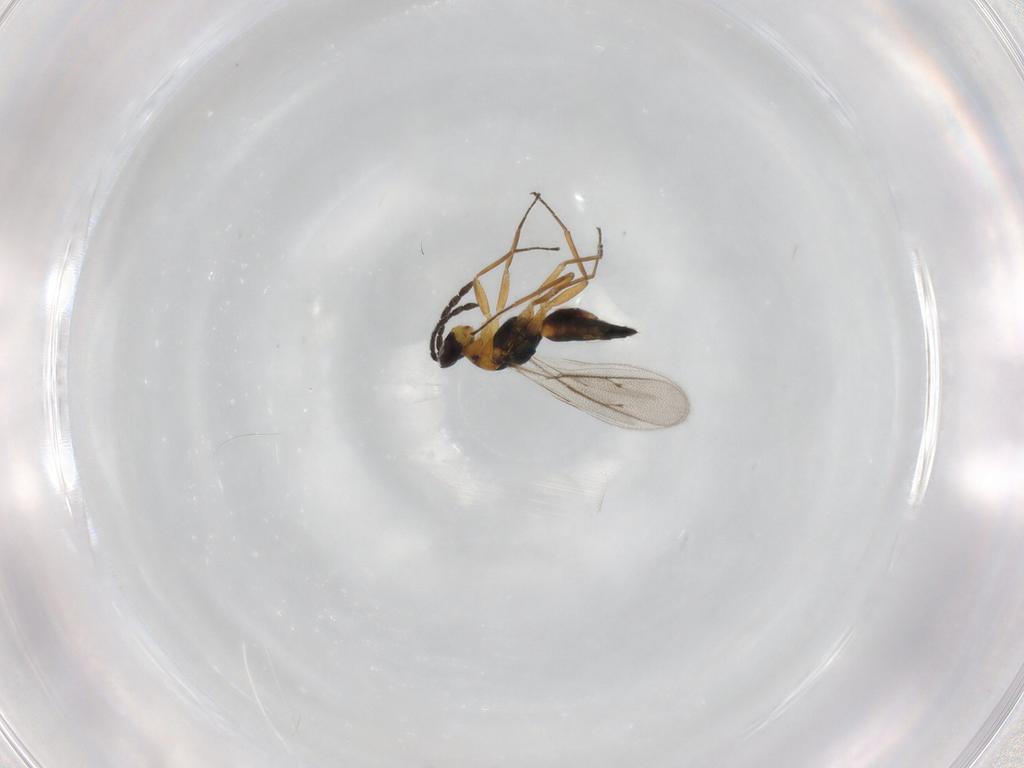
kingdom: Animalia
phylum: Arthropoda
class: Insecta
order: Hymenoptera
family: Eulophidae
